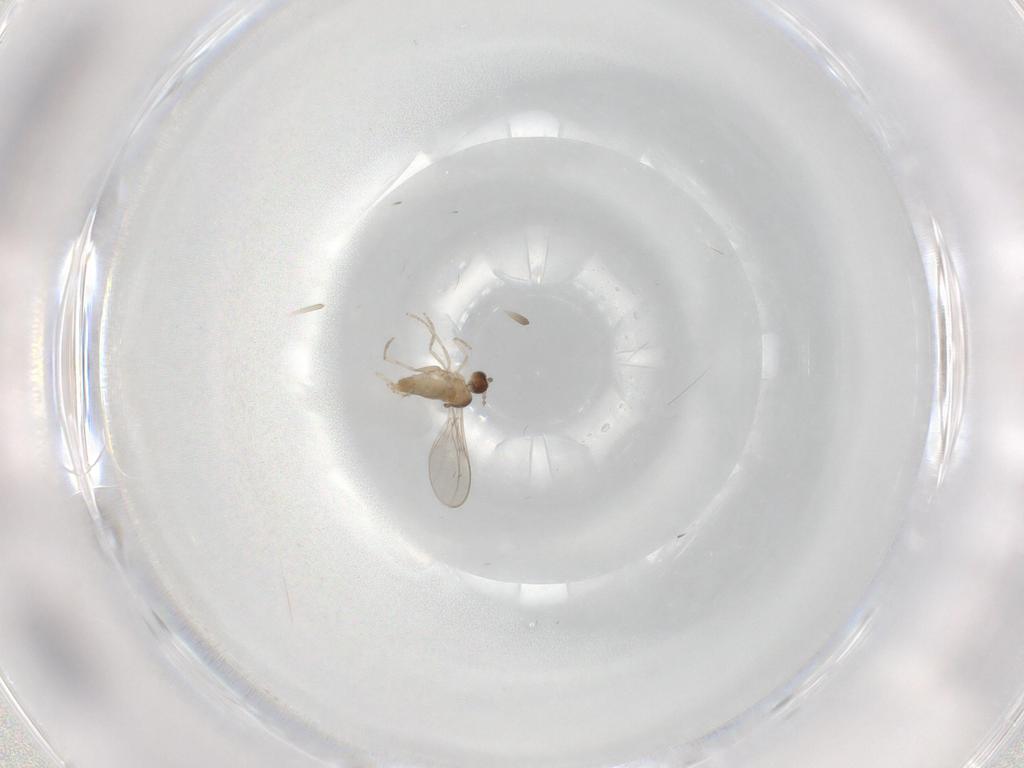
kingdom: Animalia
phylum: Arthropoda
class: Insecta
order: Diptera
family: Cecidomyiidae
